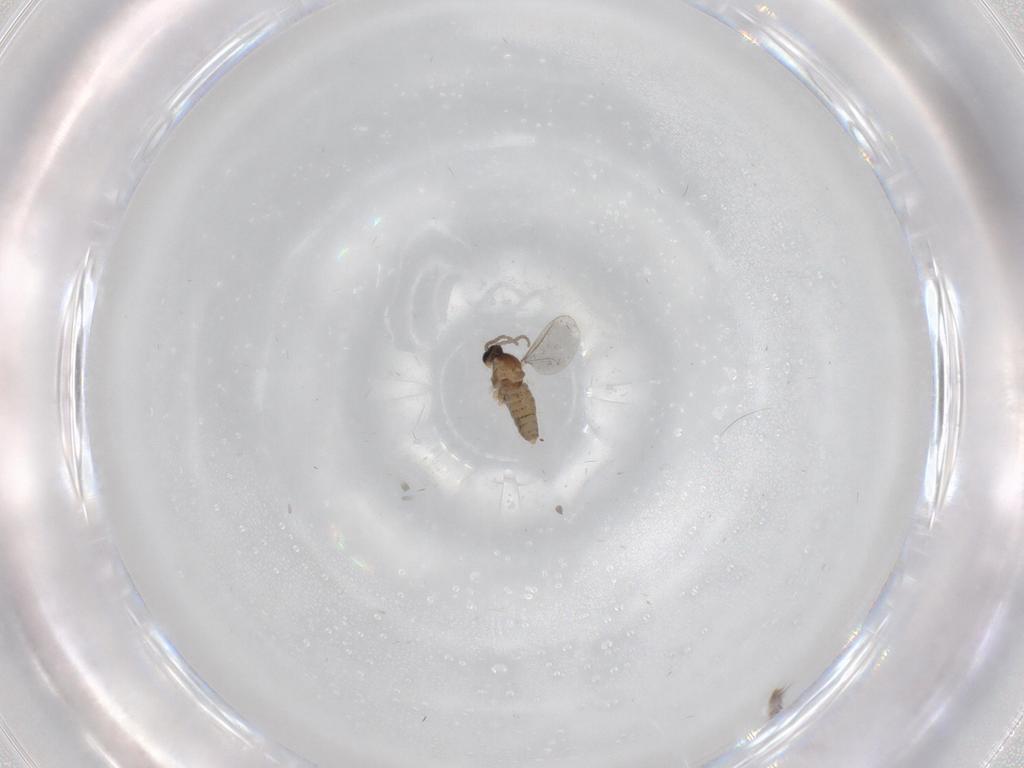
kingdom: Animalia
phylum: Arthropoda
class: Insecta
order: Diptera
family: Cecidomyiidae
